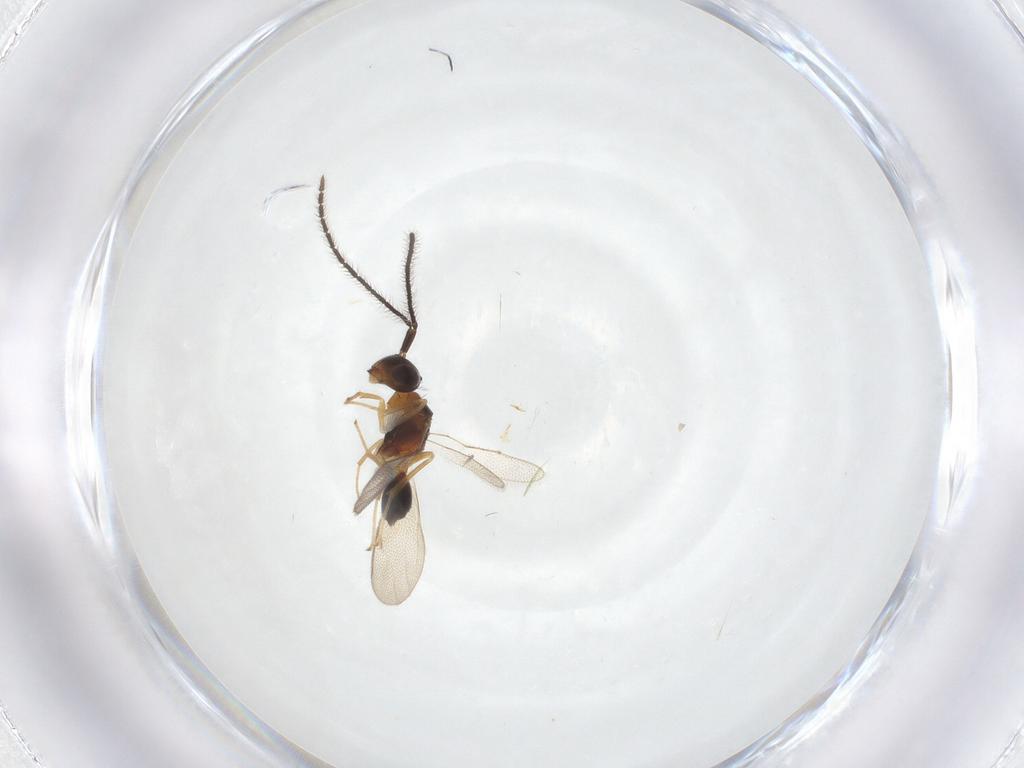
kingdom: Animalia
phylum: Arthropoda
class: Insecta
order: Hymenoptera
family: Diparidae
